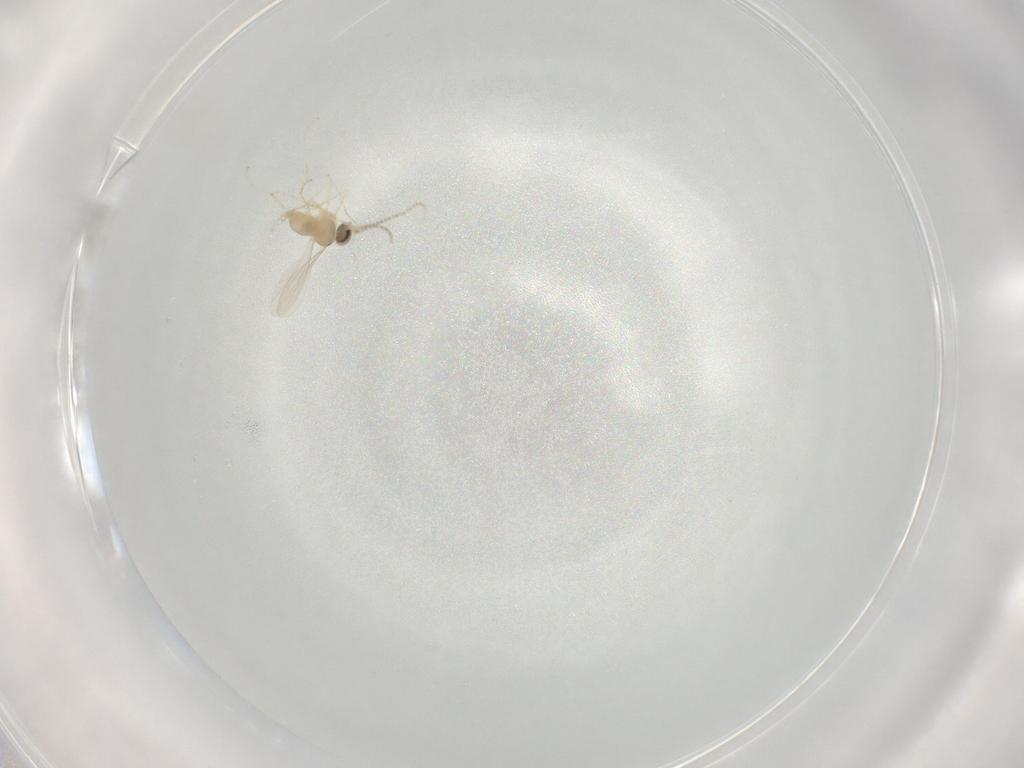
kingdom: Animalia
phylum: Arthropoda
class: Insecta
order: Diptera
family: Cecidomyiidae
